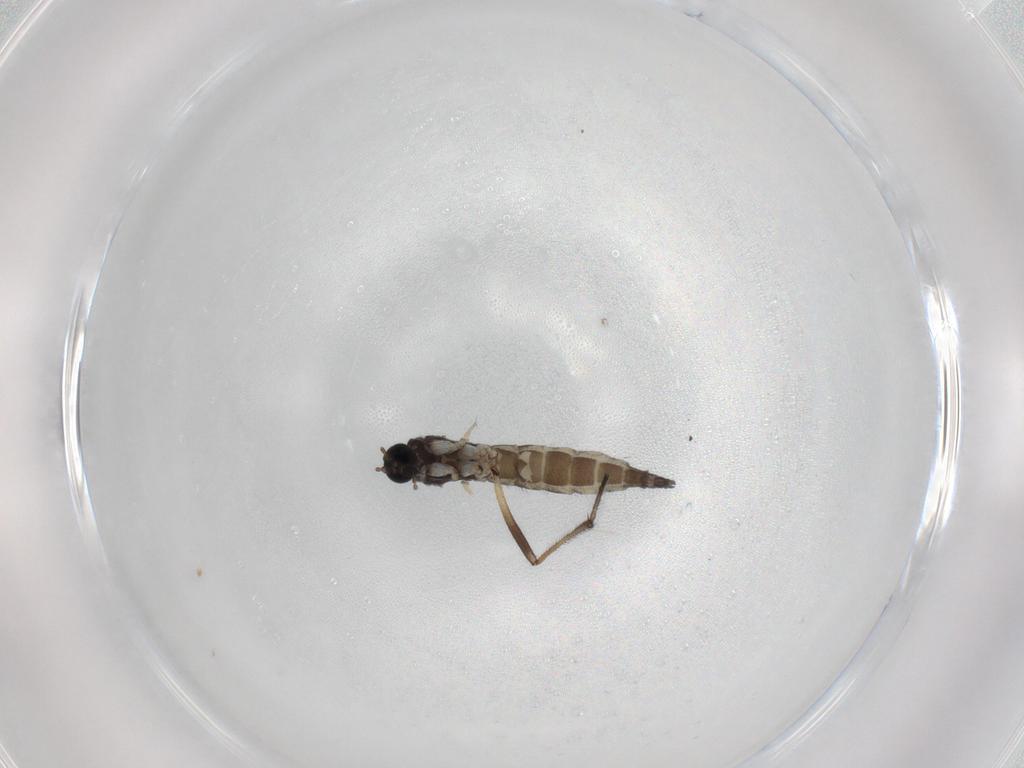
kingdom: Animalia
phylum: Arthropoda
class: Insecta
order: Diptera
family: Sciaridae
